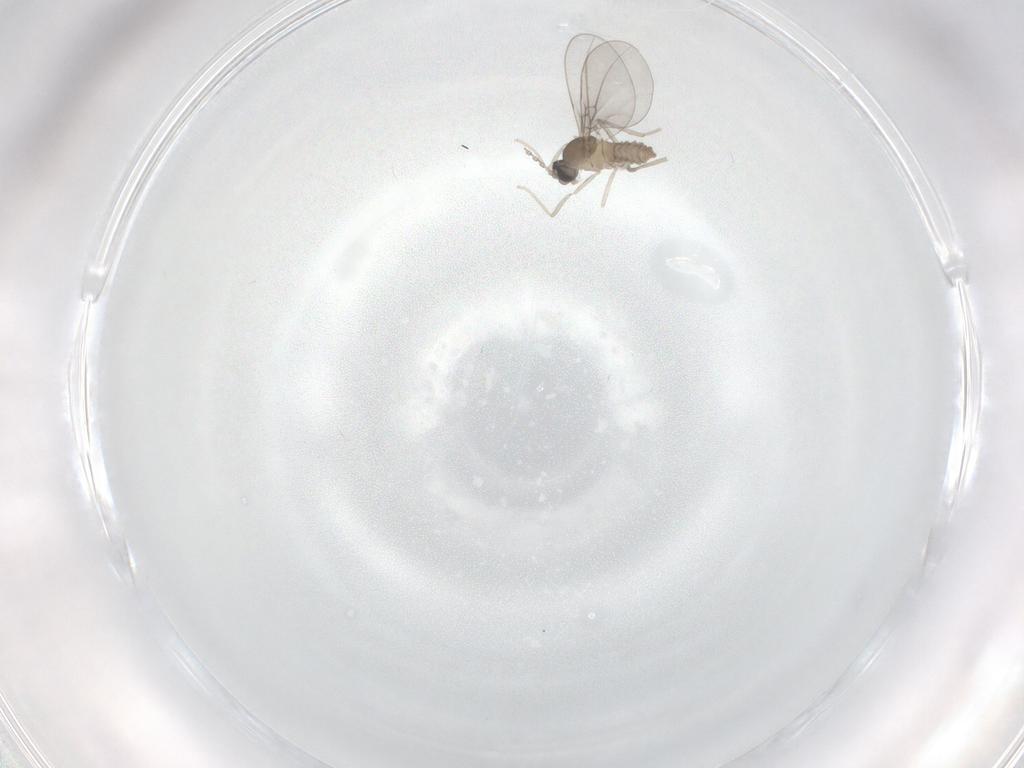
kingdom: Animalia
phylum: Arthropoda
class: Insecta
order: Diptera
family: Cecidomyiidae
